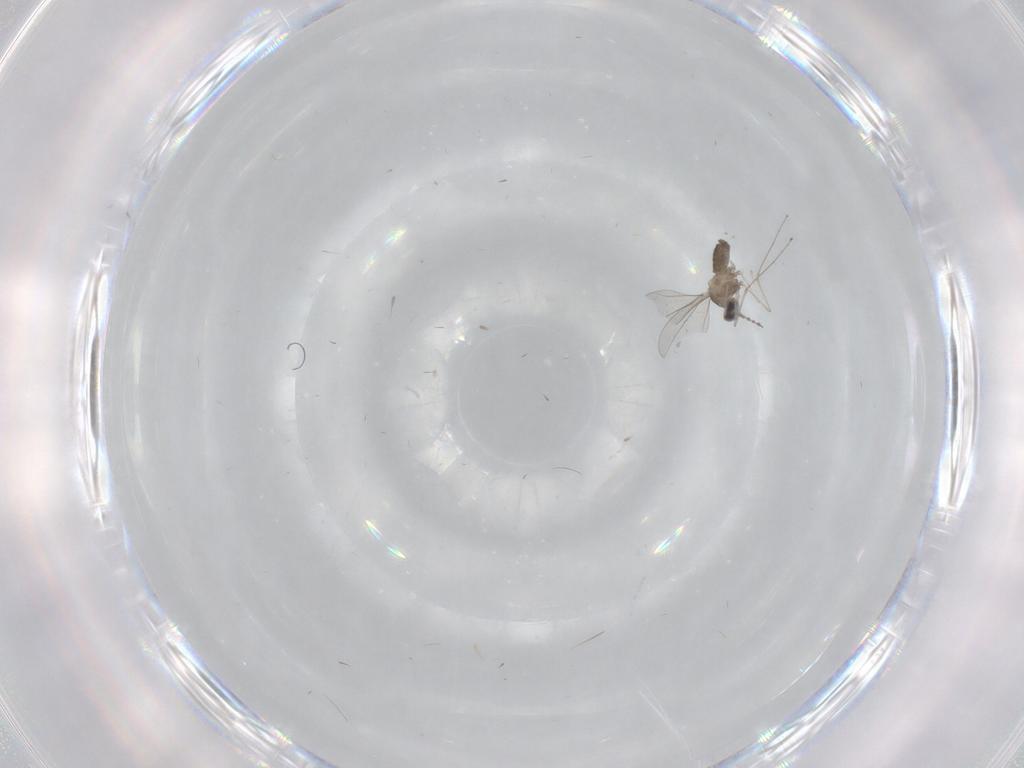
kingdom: Animalia
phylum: Arthropoda
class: Insecta
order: Diptera
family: Cecidomyiidae
